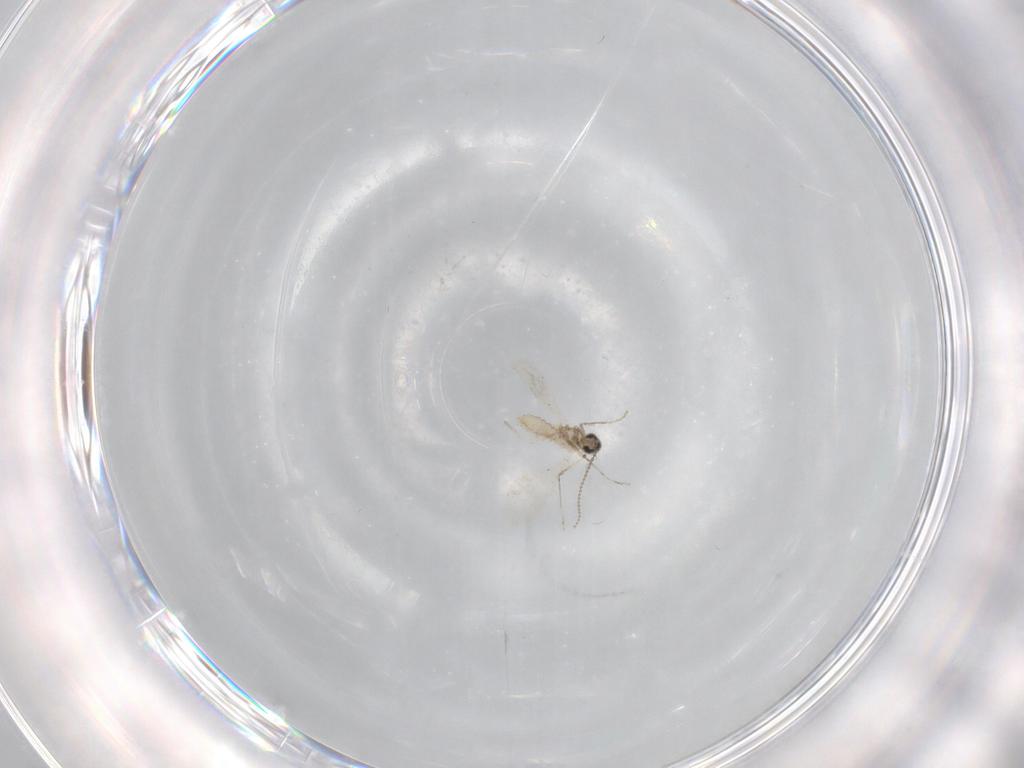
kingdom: Animalia
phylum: Arthropoda
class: Insecta
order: Diptera
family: Cecidomyiidae
